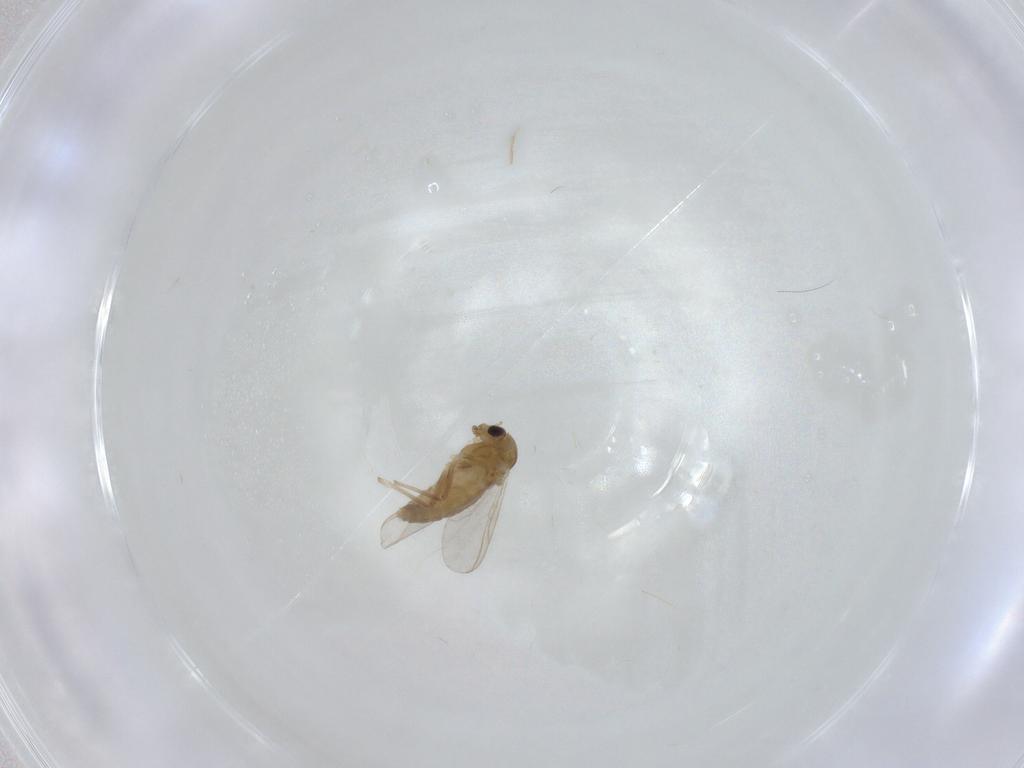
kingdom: Animalia
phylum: Arthropoda
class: Insecta
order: Diptera
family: Chironomidae
